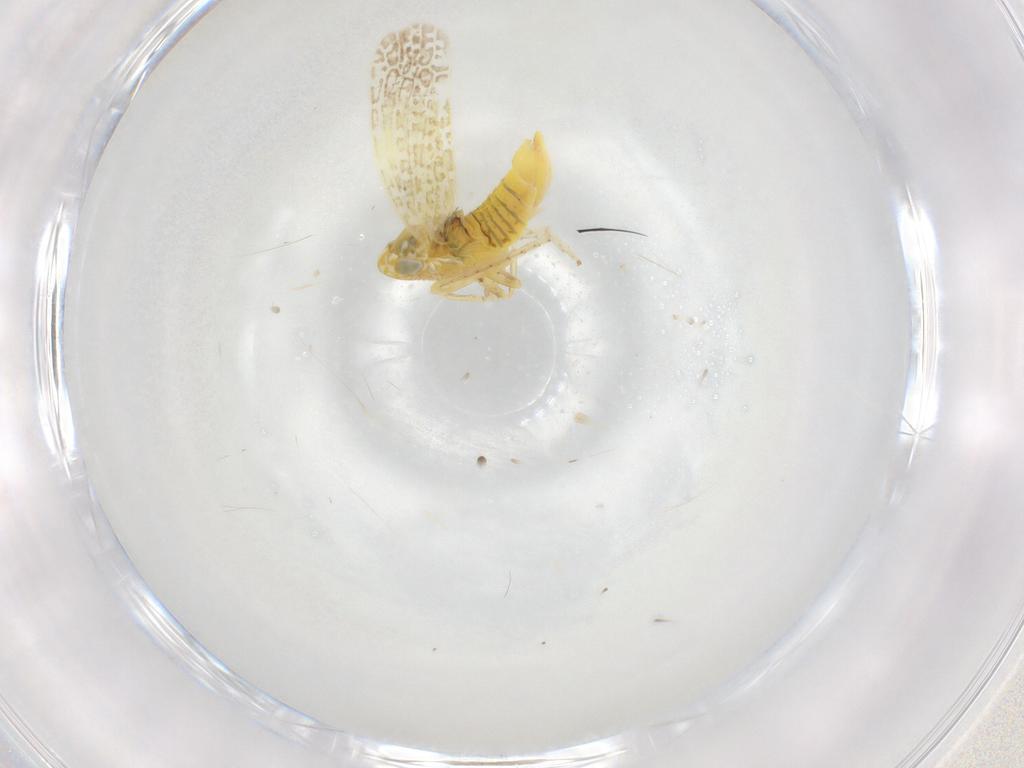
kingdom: Animalia
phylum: Arthropoda
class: Insecta
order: Hemiptera
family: Cicadellidae
